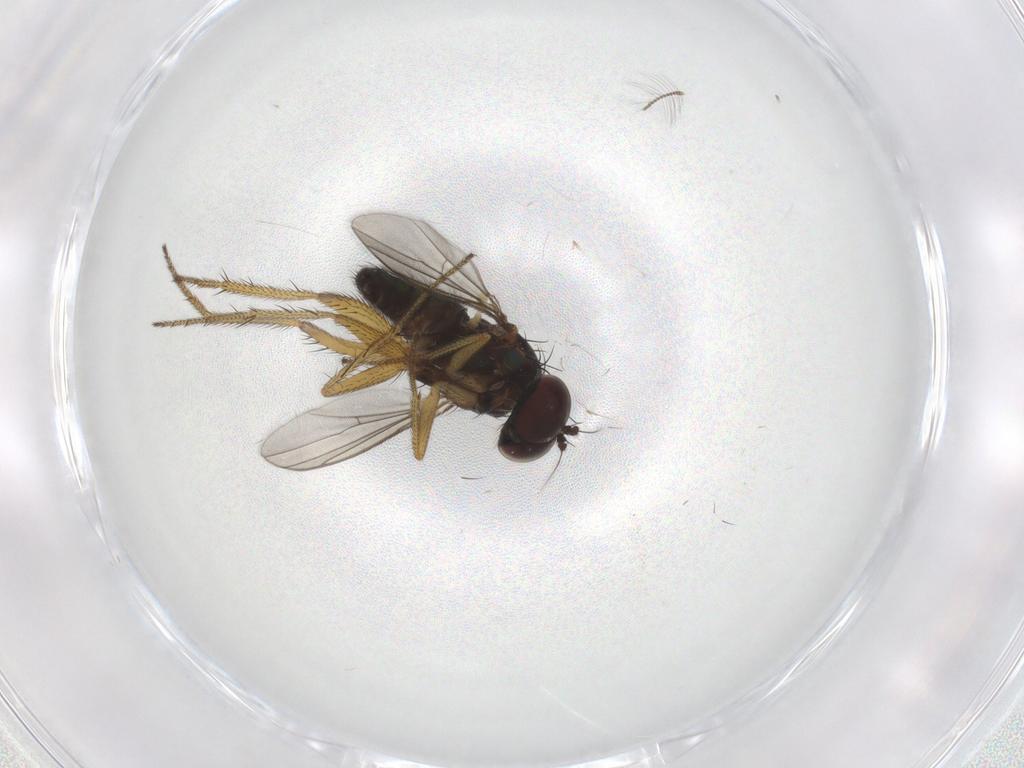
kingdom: Animalia
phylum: Arthropoda
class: Insecta
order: Diptera
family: Chironomidae
